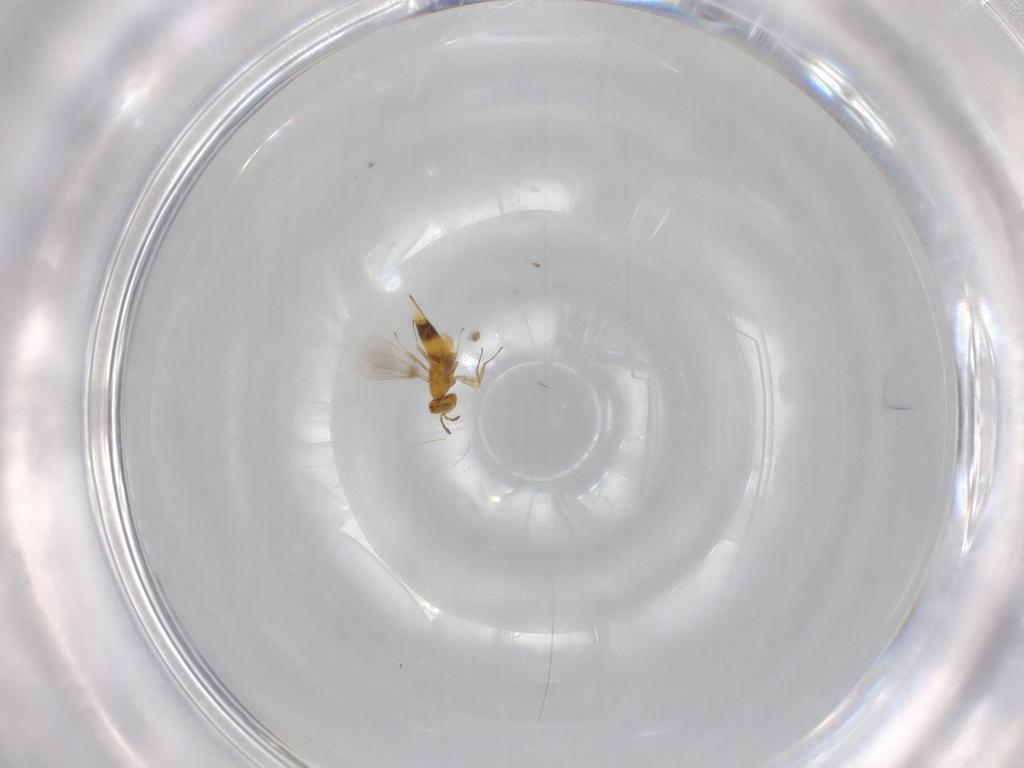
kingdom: Animalia
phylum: Arthropoda
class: Insecta
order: Hymenoptera
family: Aphelinidae
